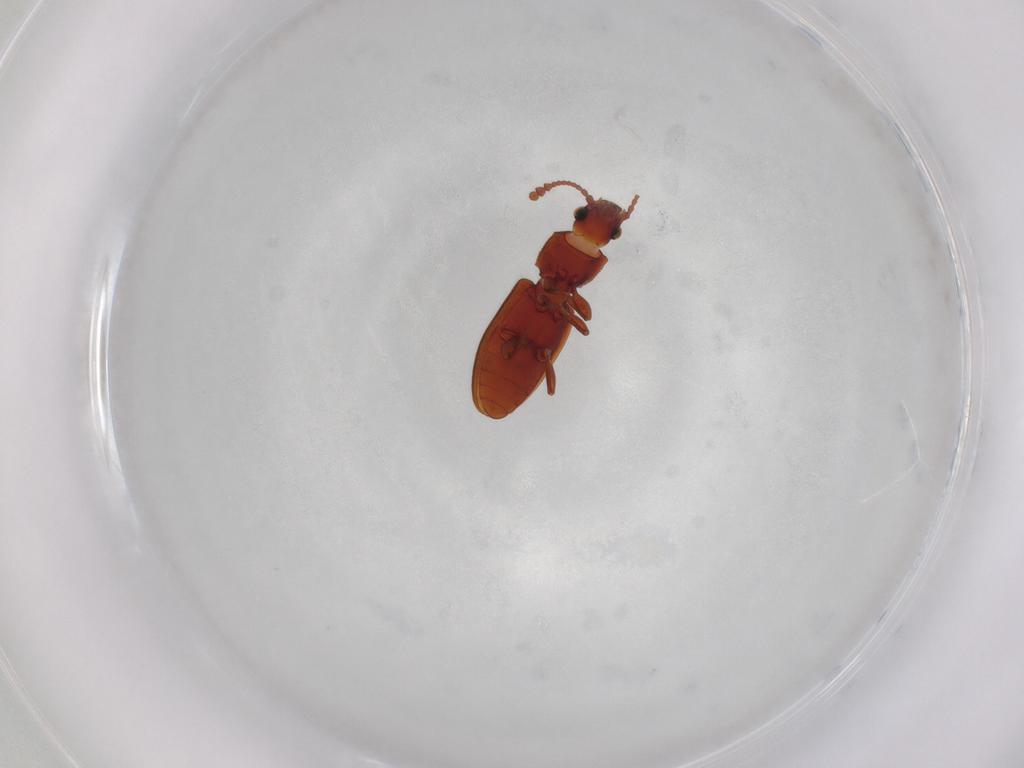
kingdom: Animalia
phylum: Arthropoda
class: Insecta
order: Coleoptera
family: Silvanidae
